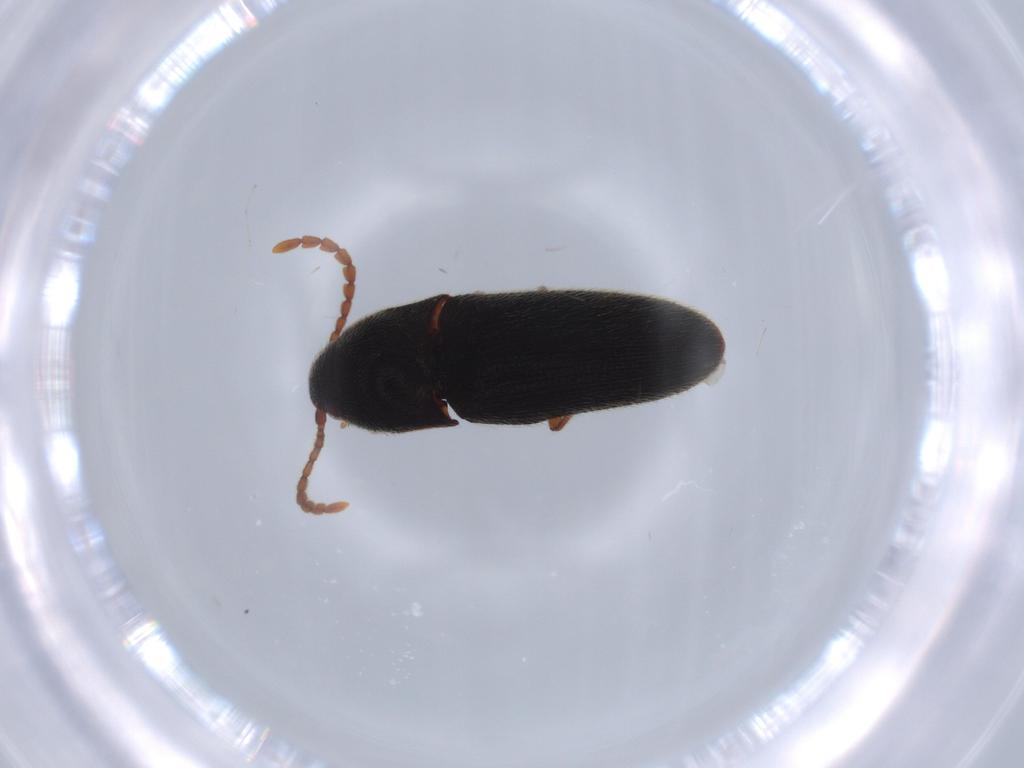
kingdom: Animalia
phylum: Arthropoda
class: Insecta
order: Coleoptera
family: Elateridae
